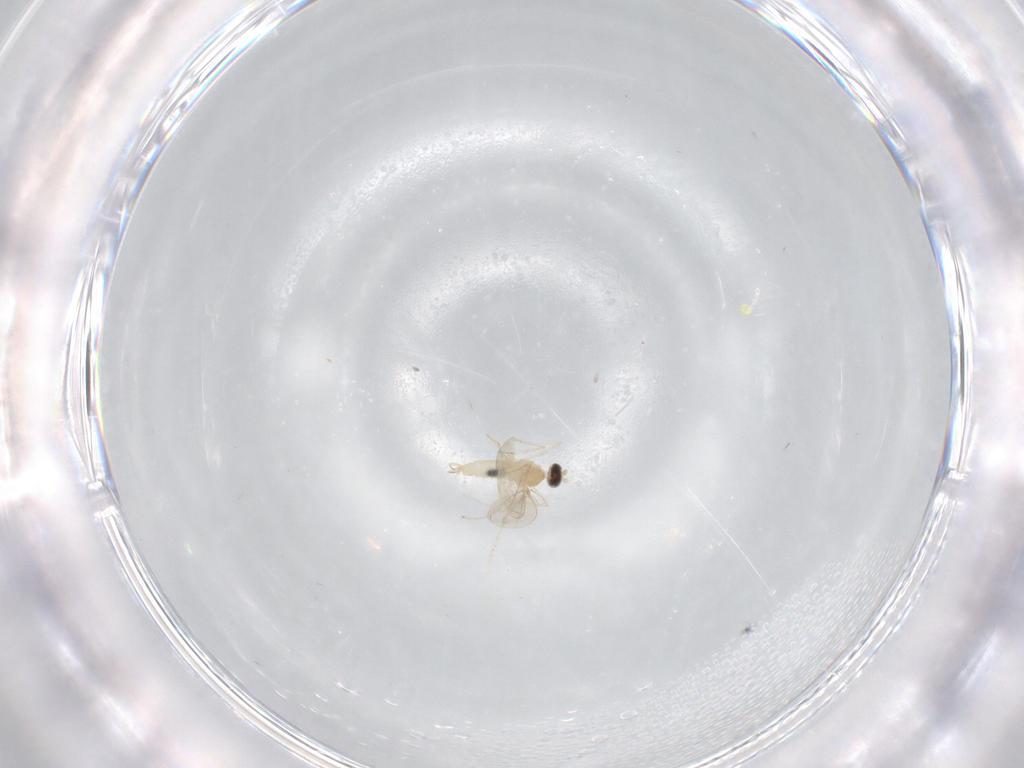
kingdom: Animalia
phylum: Arthropoda
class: Insecta
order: Diptera
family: Cecidomyiidae
